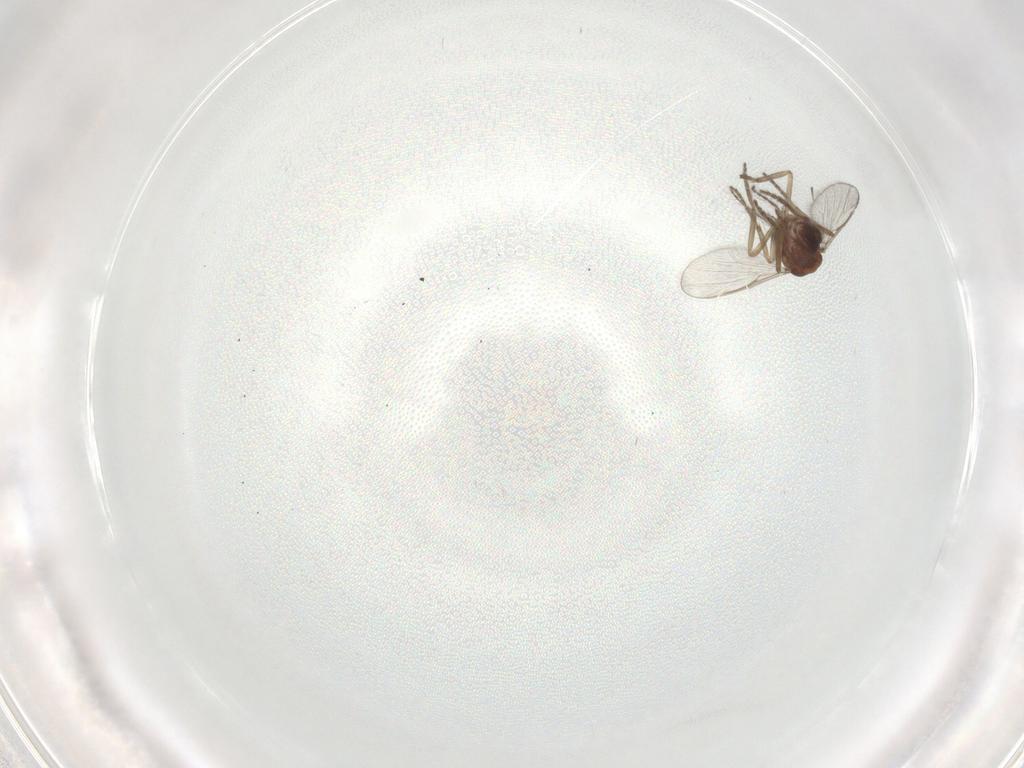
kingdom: Animalia
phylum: Arthropoda
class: Insecta
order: Diptera
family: Ceratopogonidae
